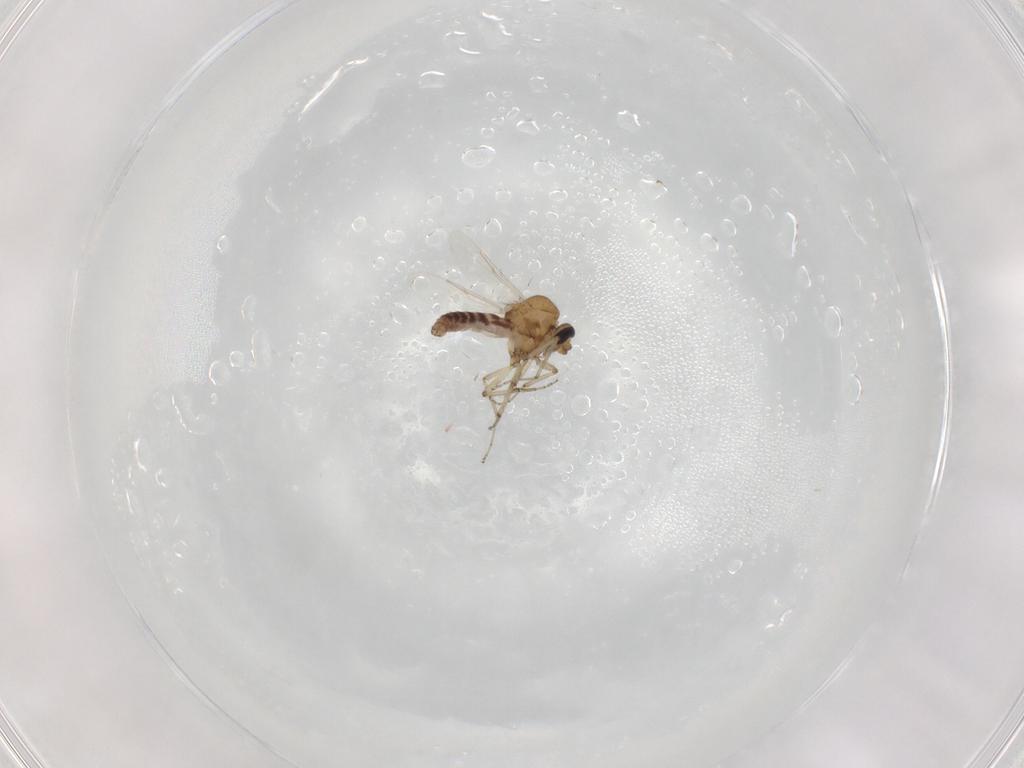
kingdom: Animalia
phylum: Arthropoda
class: Insecta
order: Diptera
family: Ceratopogonidae
